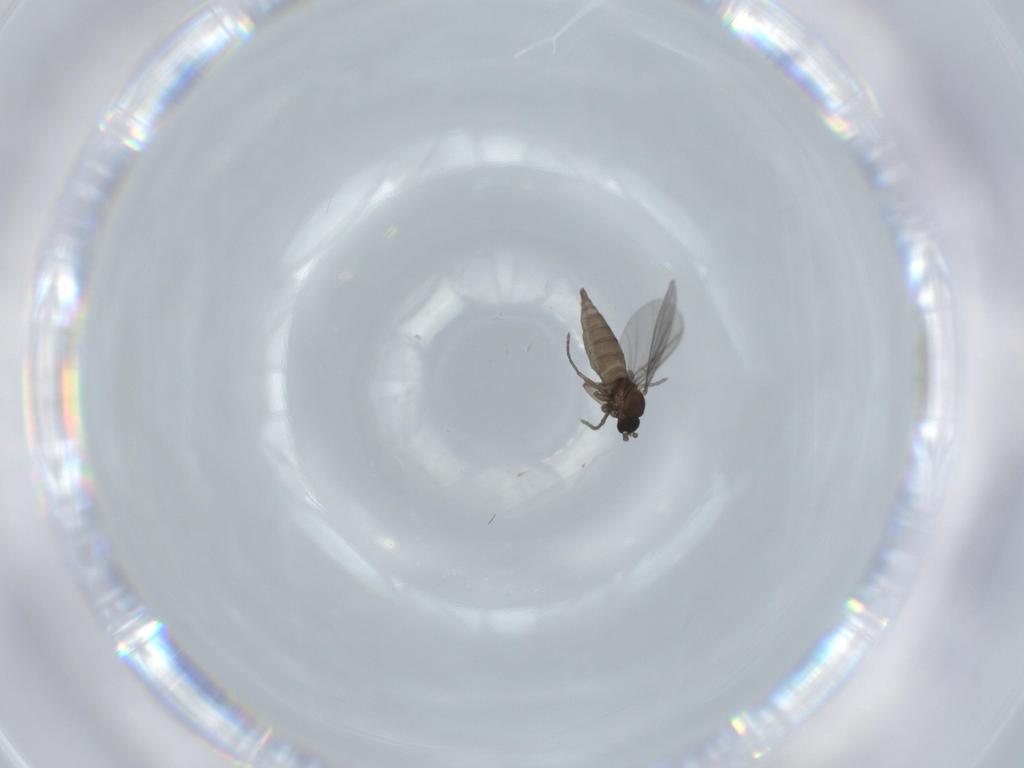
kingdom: Animalia
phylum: Arthropoda
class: Insecta
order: Diptera
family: Sciaridae
